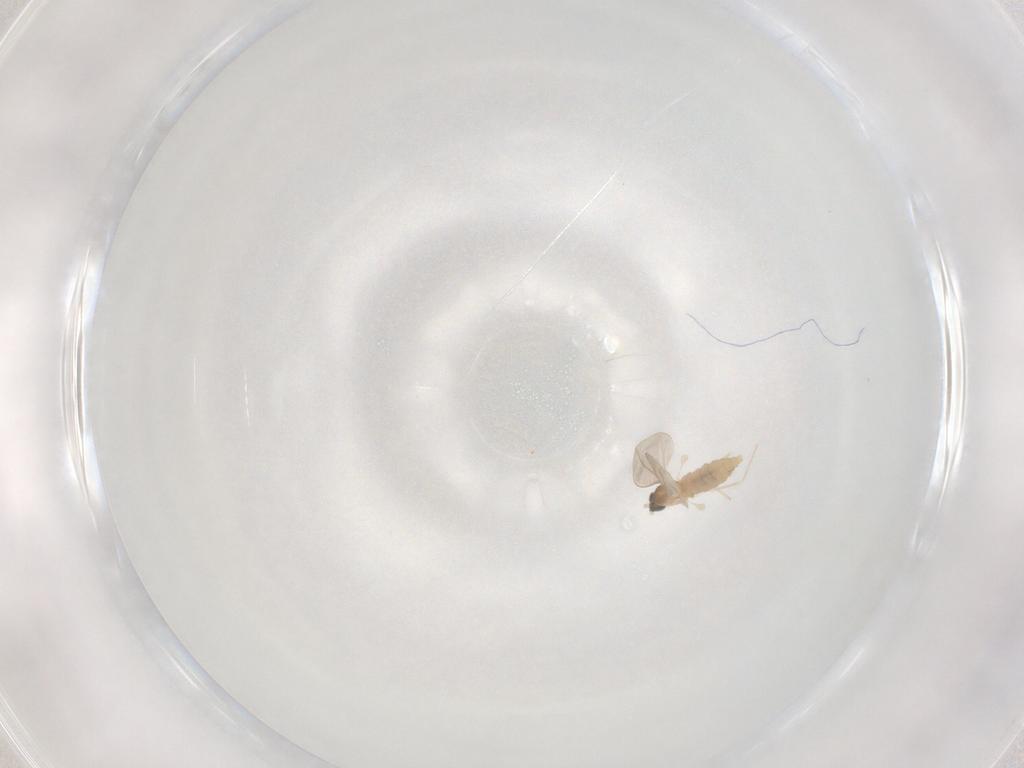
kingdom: Animalia
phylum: Arthropoda
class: Insecta
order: Diptera
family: Cecidomyiidae
